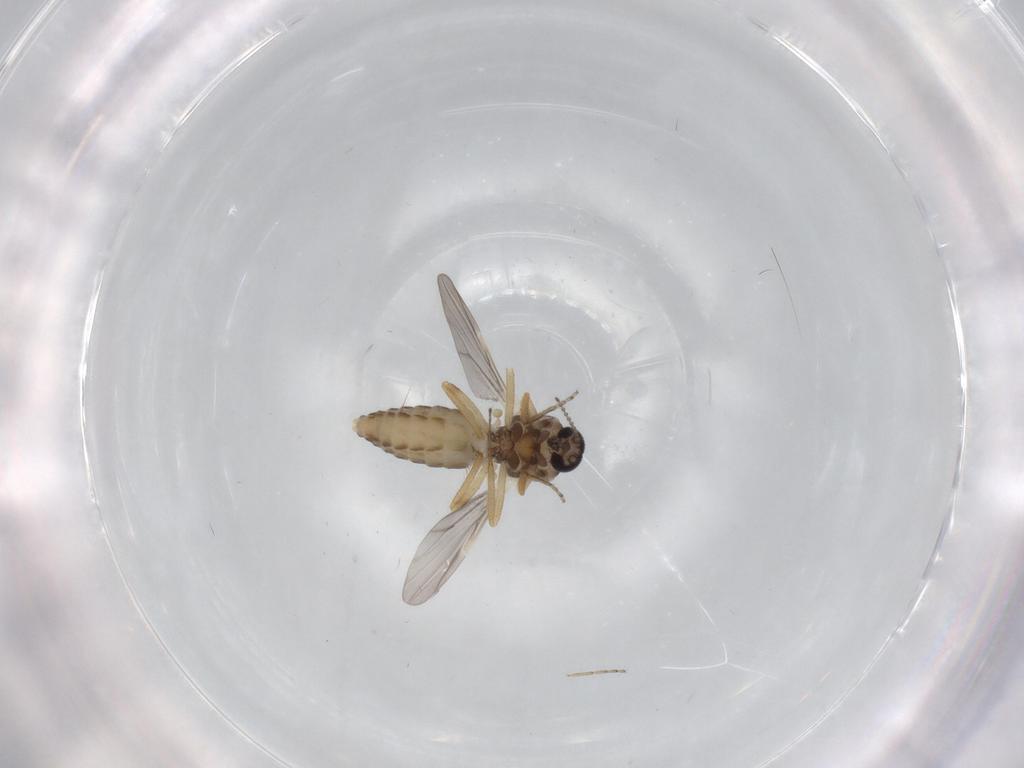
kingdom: Animalia
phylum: Arthropoda
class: Insecta
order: Diptera
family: Ceratopogonidae
